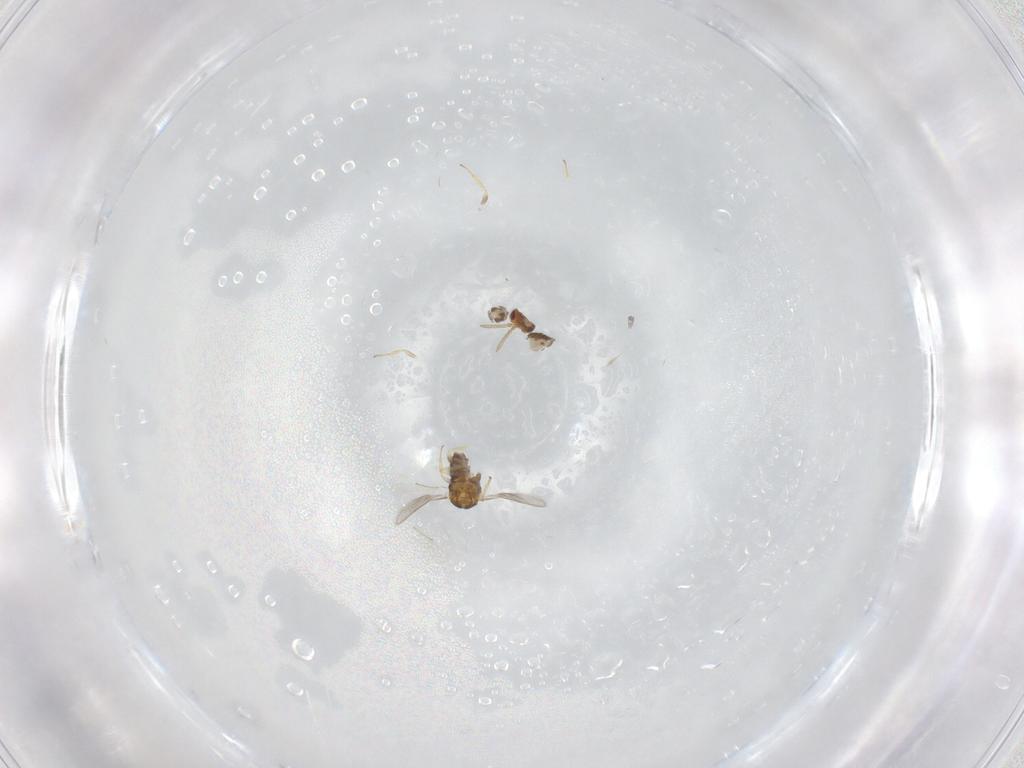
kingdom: Animalia
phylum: Arthropoda
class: Insecta
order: Hymenoptera
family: Aphelinidae
